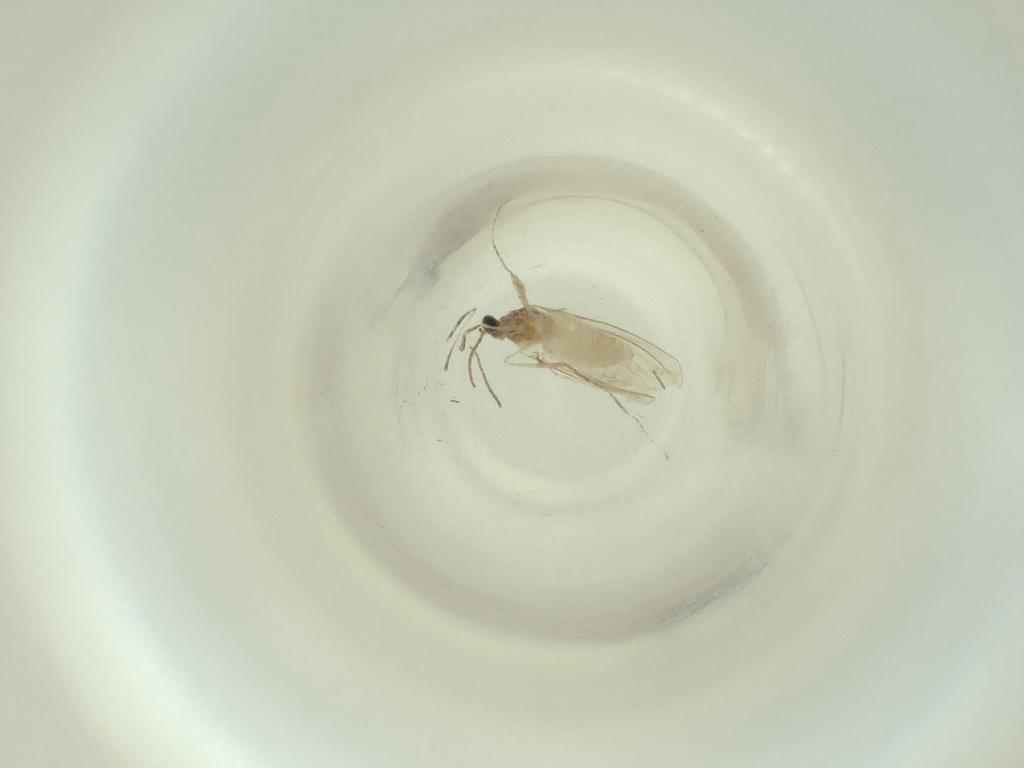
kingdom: Animalia
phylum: Arthropoda
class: Insecta
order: Diptera
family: Cecidomyiidae
